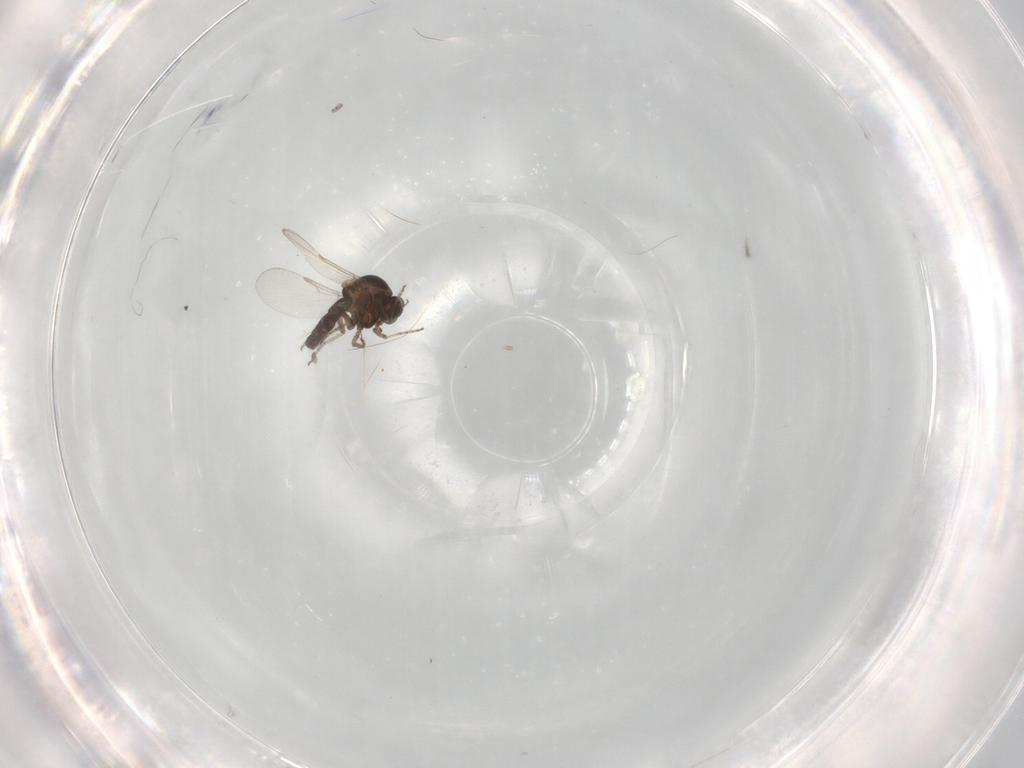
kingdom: Animalia
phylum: Arthropoda
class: Insecta
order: Diptera
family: Ceratopogonidae
